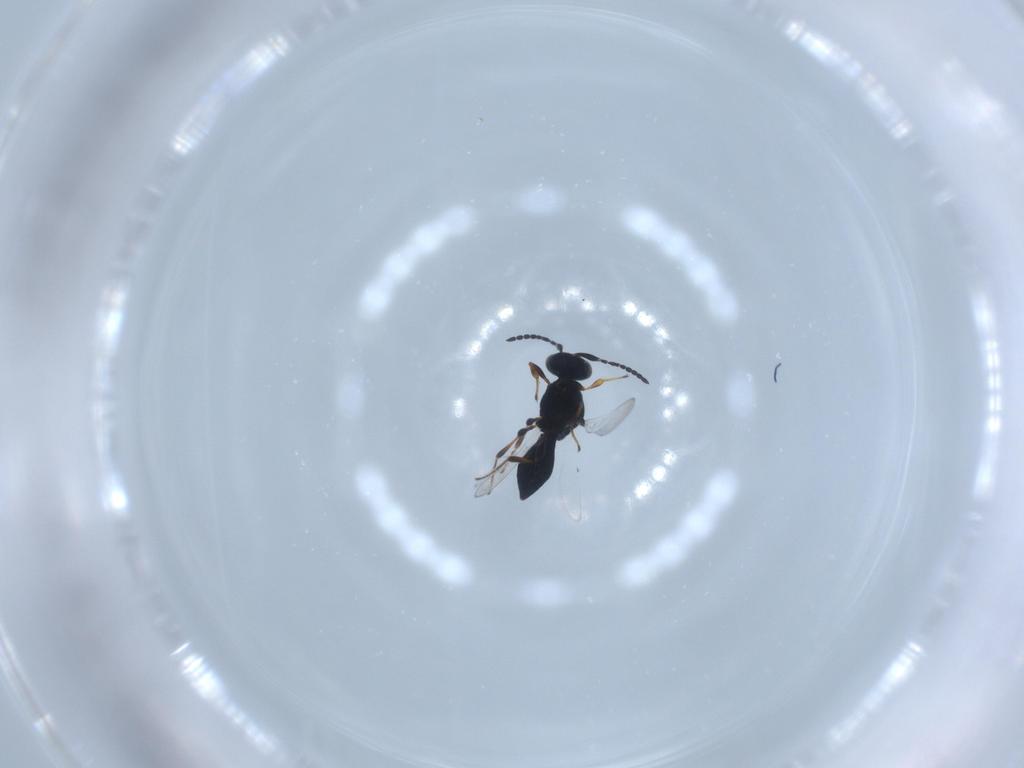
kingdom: Animalia
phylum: Arthropoda
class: Insecta
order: Hymenoptera
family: Platygastridae
